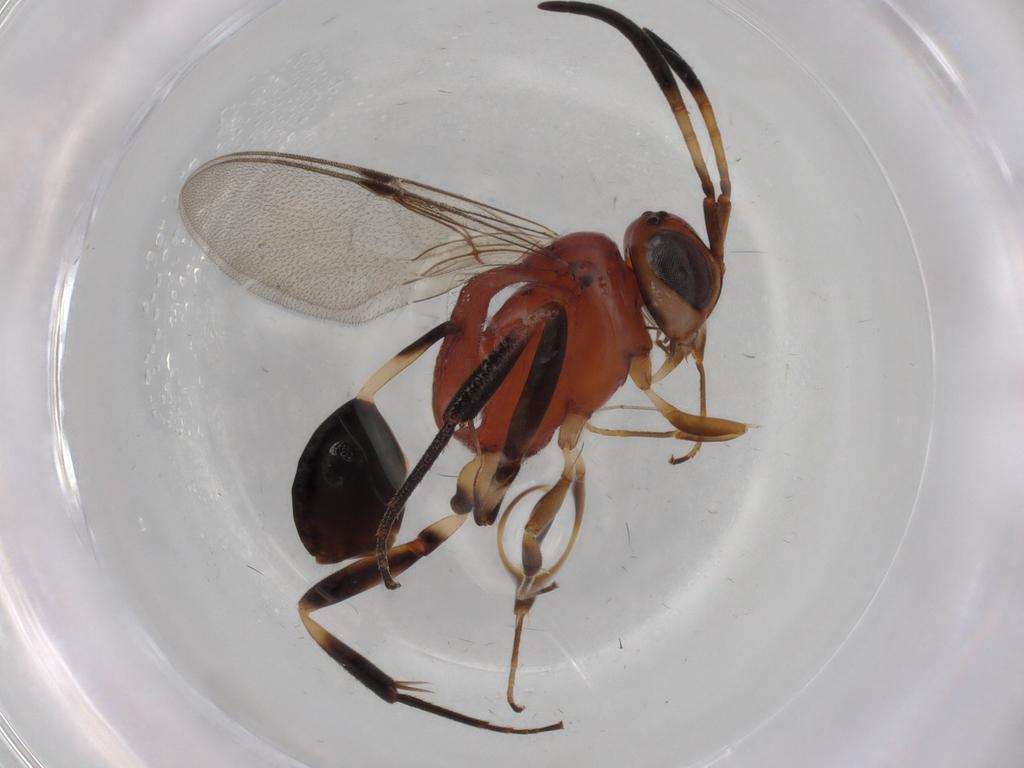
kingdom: Animalia
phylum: Arthropoda
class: Insecta
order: Hymenoptera
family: Evaniidae
